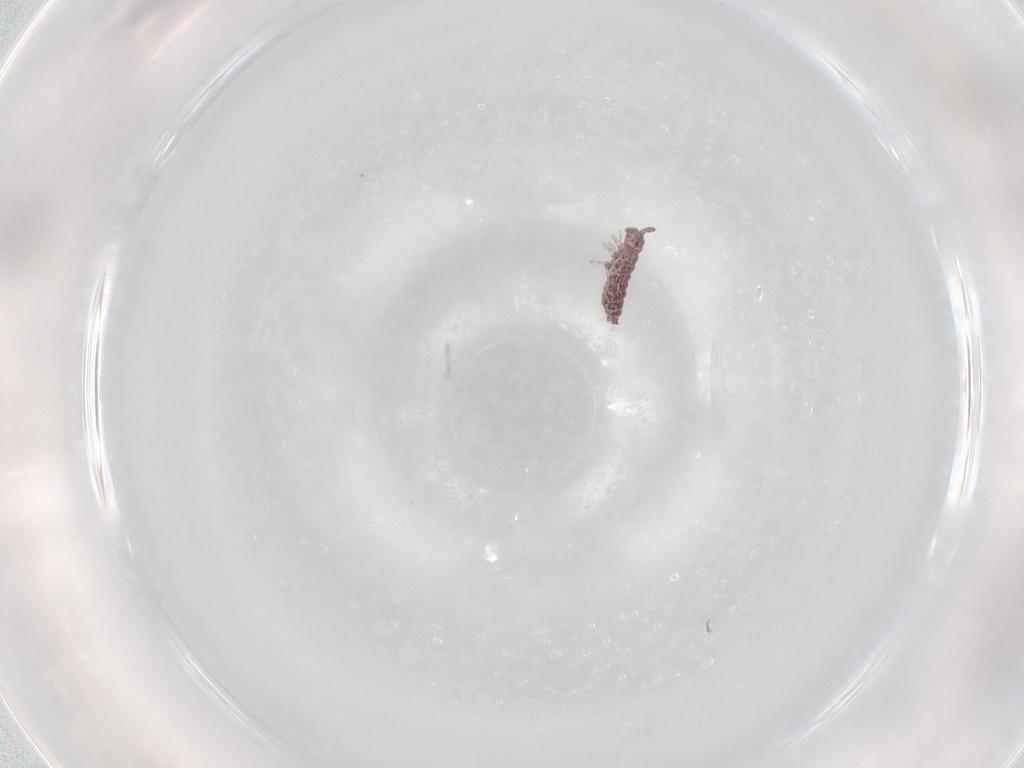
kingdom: Animalia
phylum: Arthropoda
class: Collembola
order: Poduromorpha
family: Hypogastruridae
